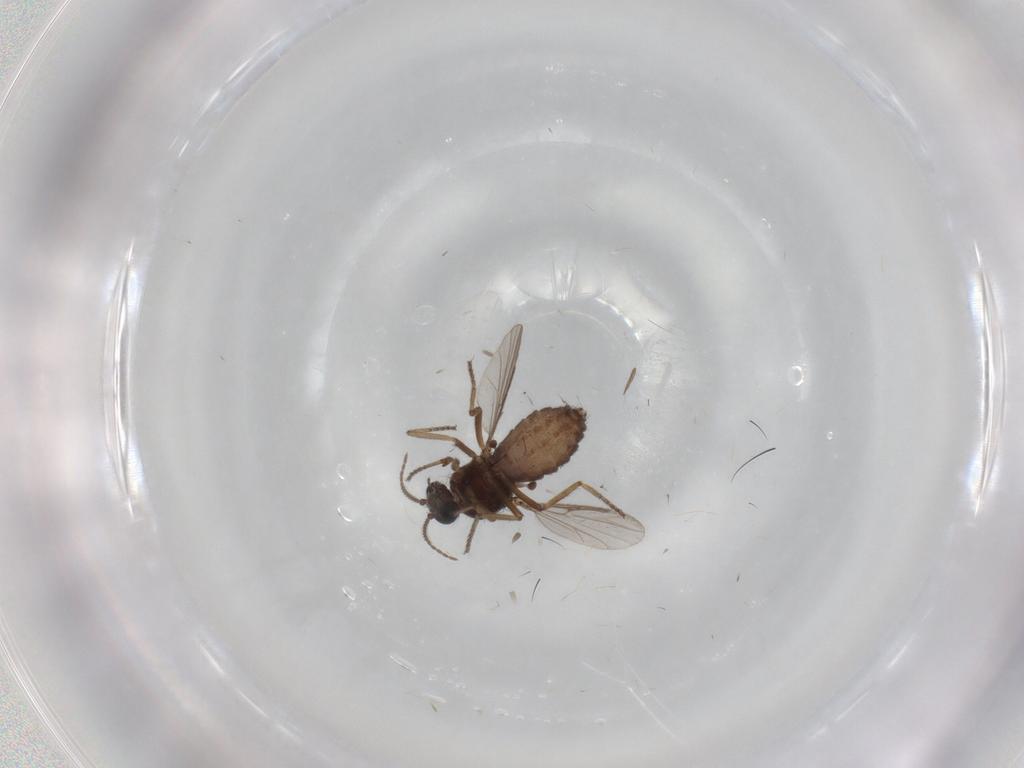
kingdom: Animalia
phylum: Arthropoda
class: Insecta
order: Diptera
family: Ceratopogonidae
